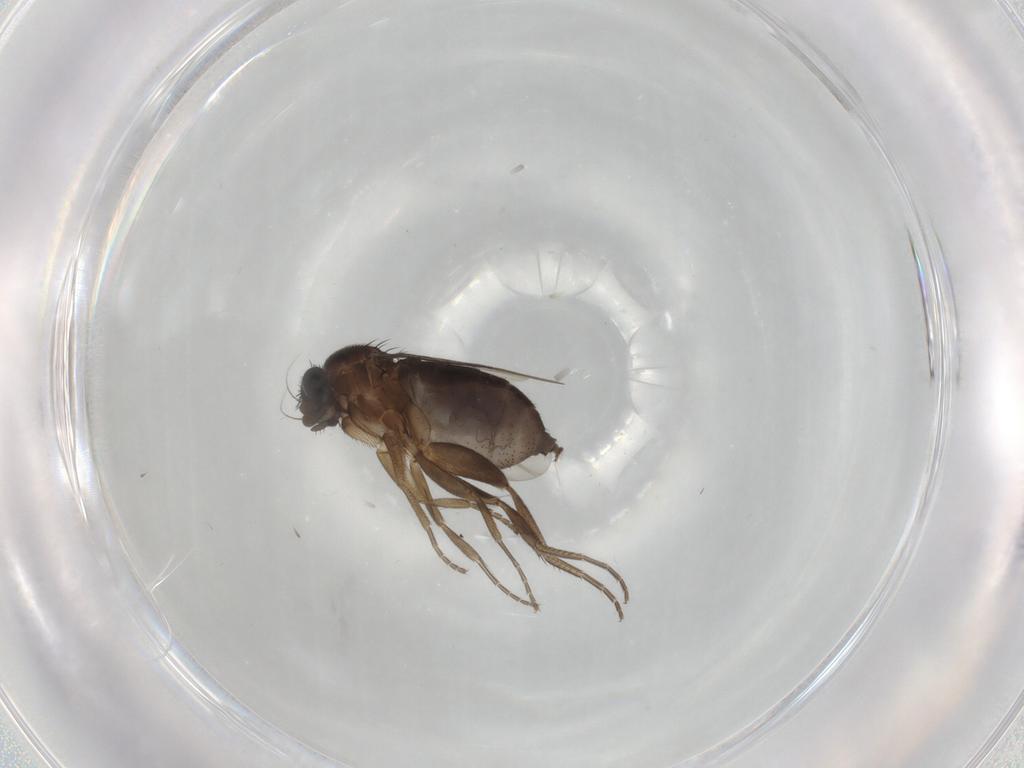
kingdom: Animalia
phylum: Arthropoda
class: Insecta
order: Diptera
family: Phoridae
